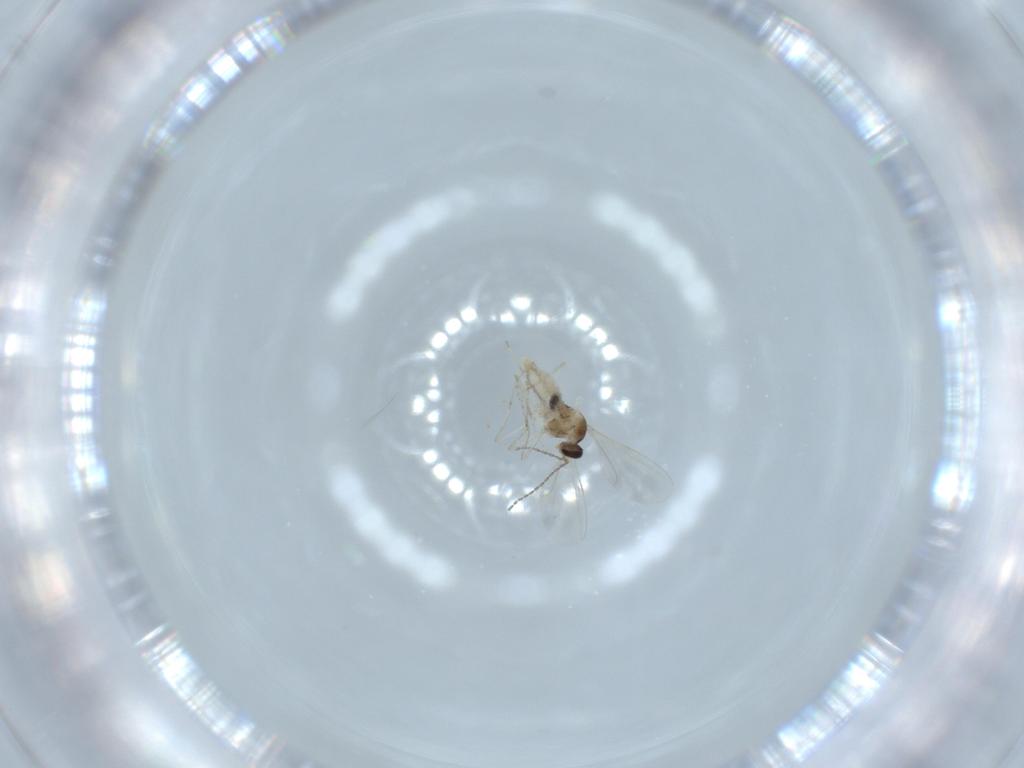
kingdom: Animalia
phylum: Arthropoda
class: Insecta
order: Diptera
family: Cecidomyiidae
